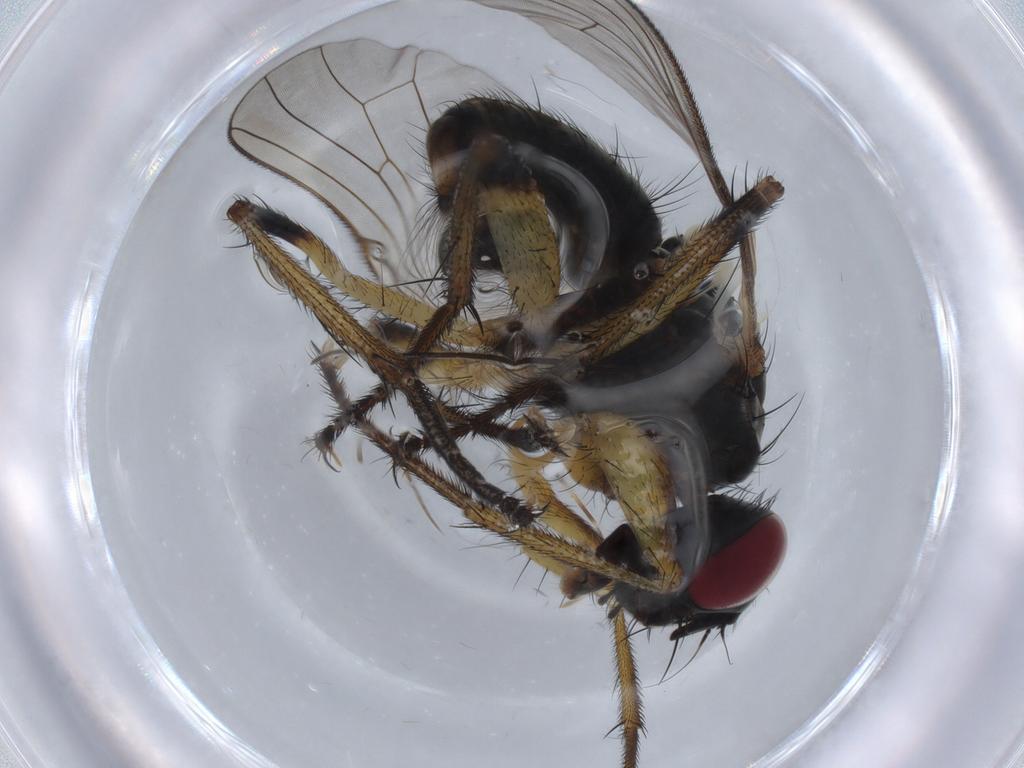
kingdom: Animalia
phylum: Arthropoda
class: Insecta
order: Diptera
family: Muscidae
